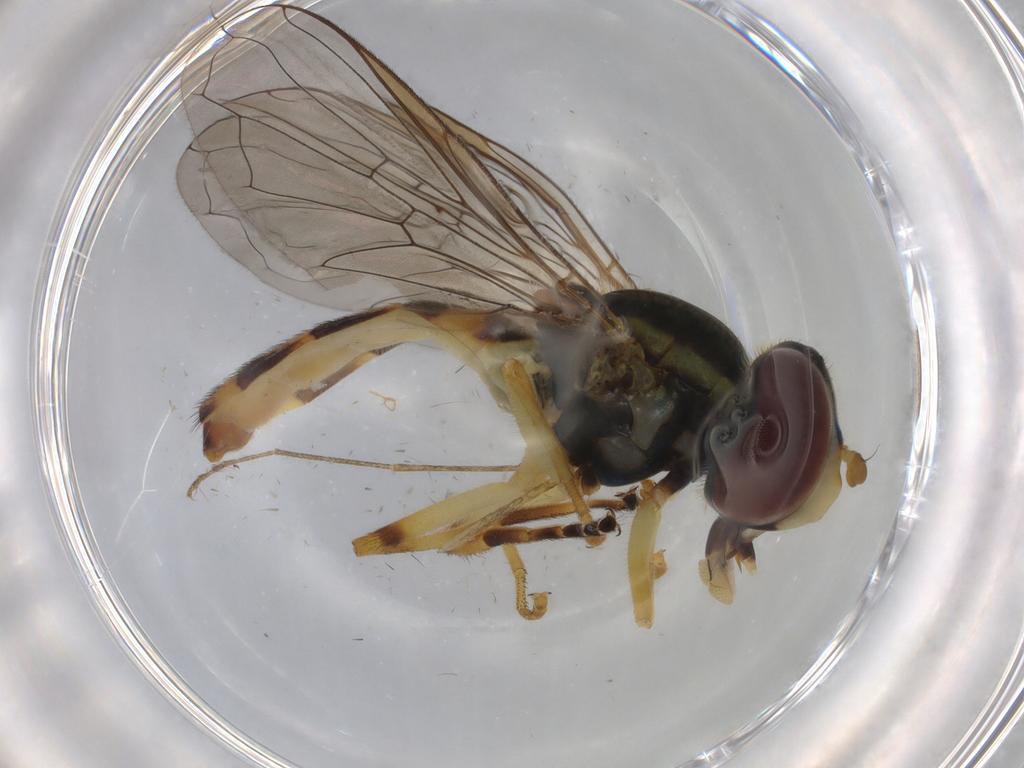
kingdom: Animalia
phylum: Arthropoda
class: Insecta
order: Diptera
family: Syrphidae
